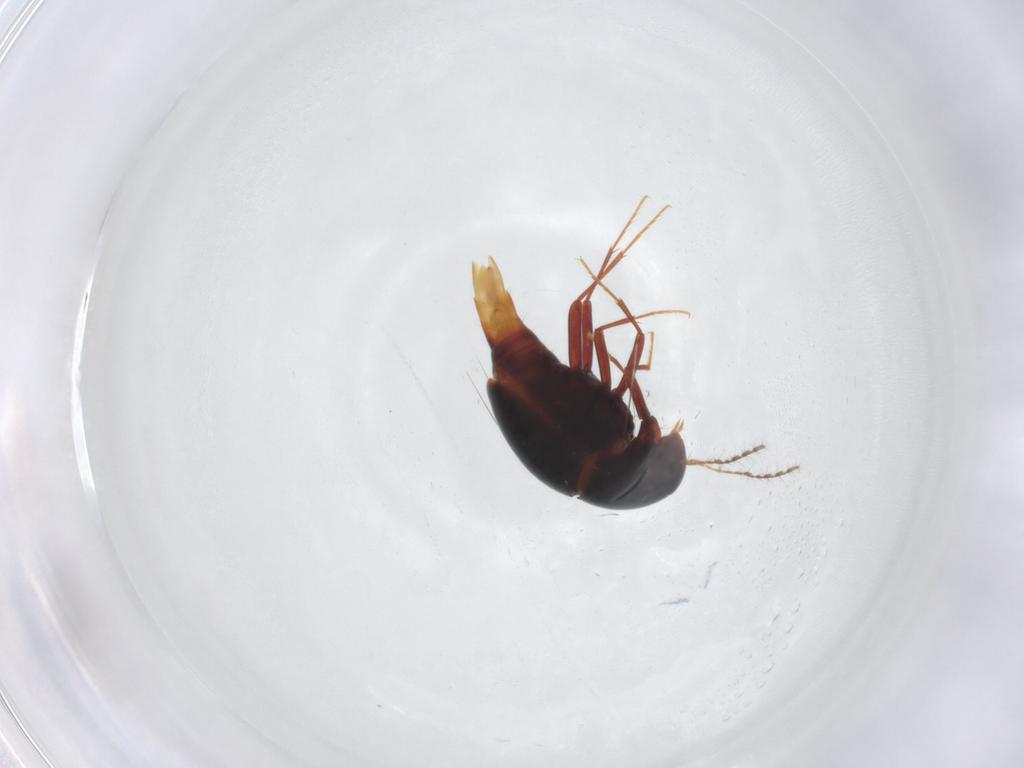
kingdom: Animalia
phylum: Arthropoda
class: Insecta
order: Coleoptera
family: Staphylinidae
